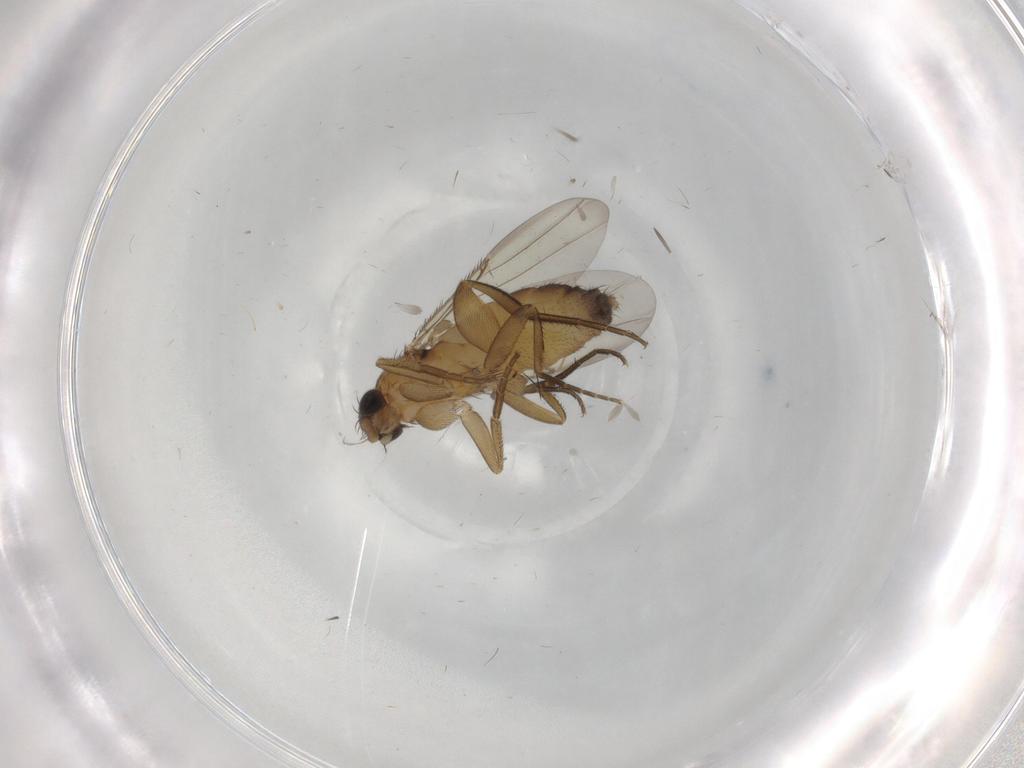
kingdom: Animalia
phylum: Arthropoda
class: Insecta
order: Diptera
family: Phoridae
